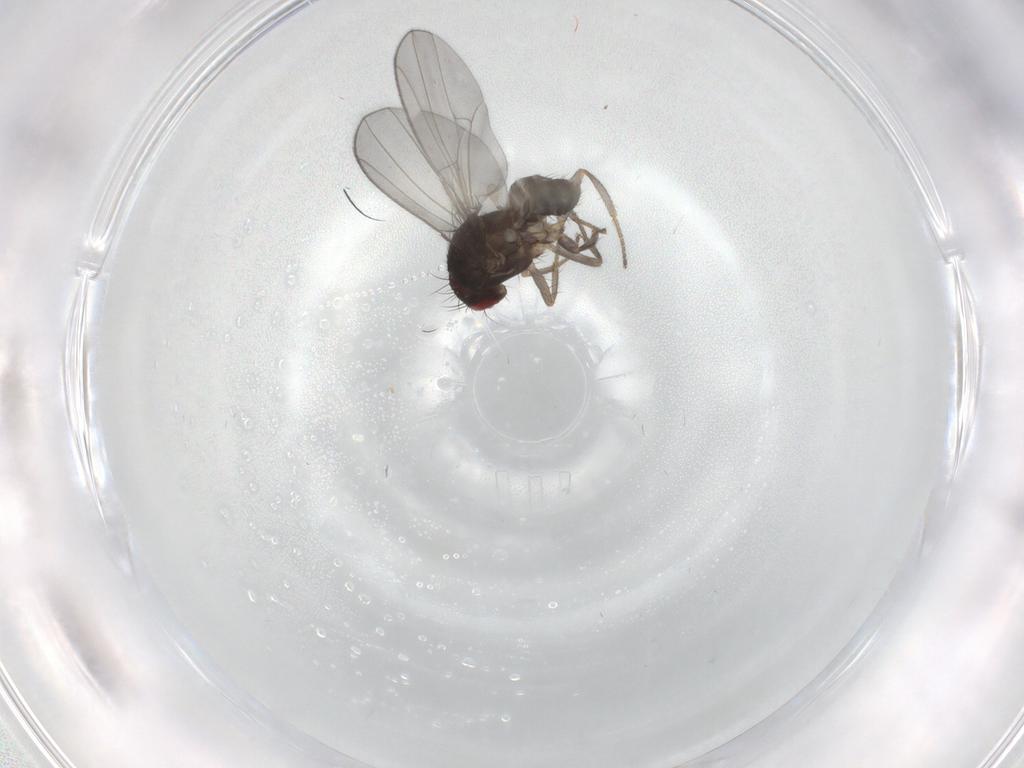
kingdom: Animalia
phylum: Arthropoda
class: Insecta
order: Diptera
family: Drosophilidae
